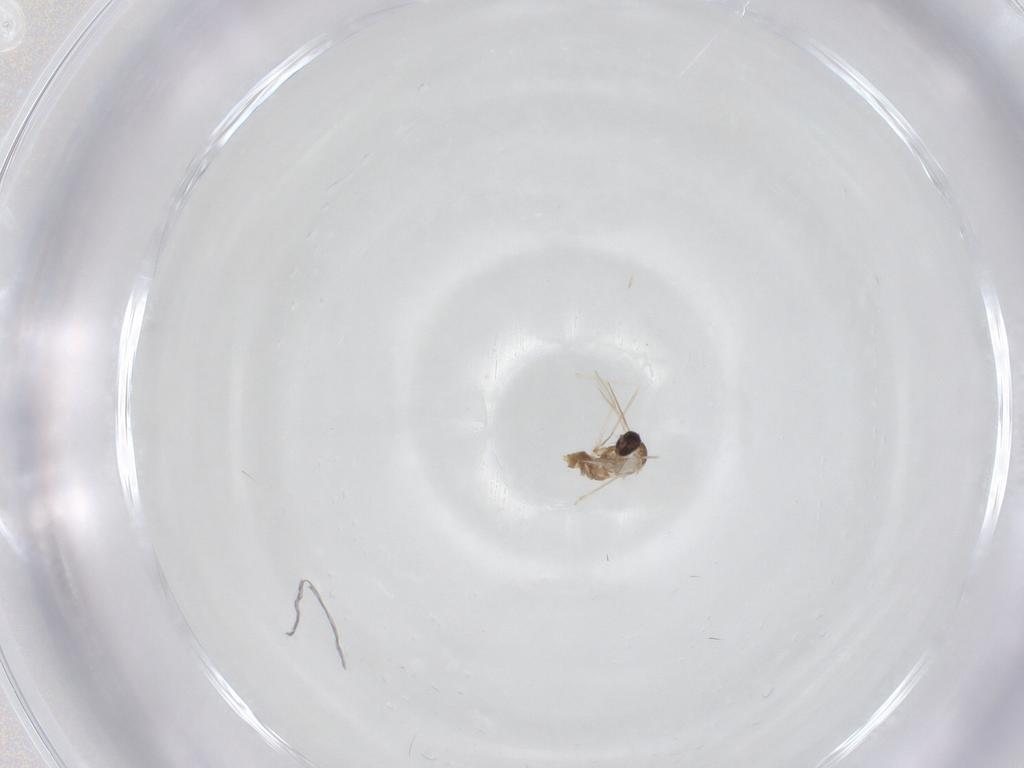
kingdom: Animalia
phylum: Arthropoda
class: Insecta
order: Diptera
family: Cecidomyiidae
